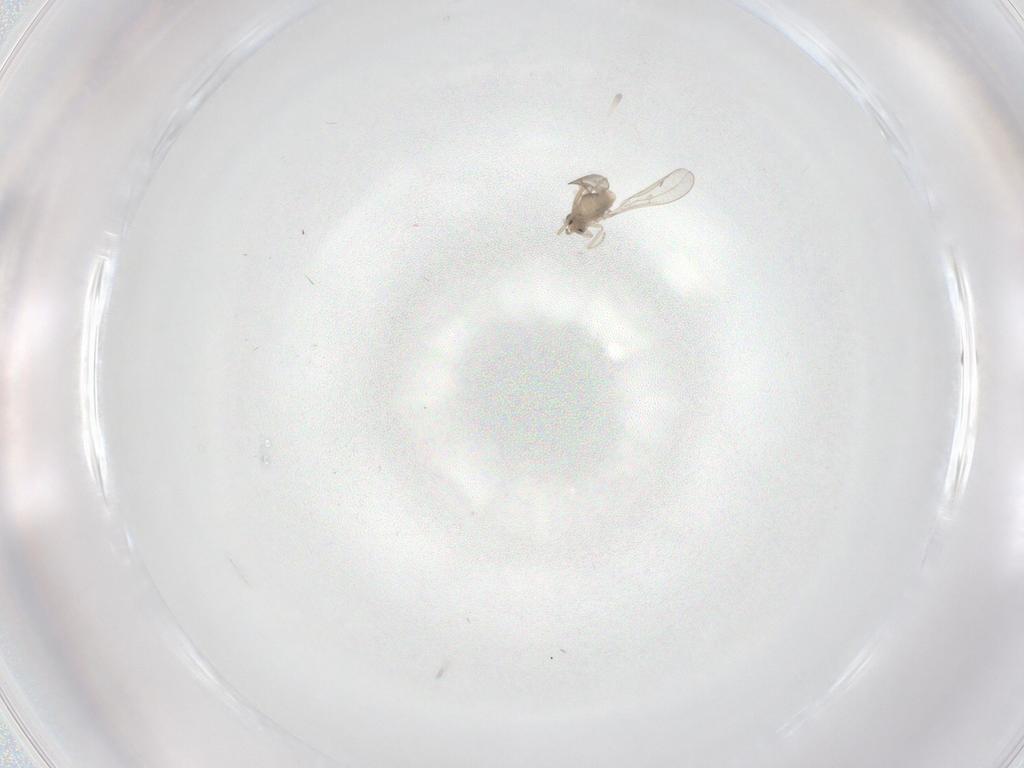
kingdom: Animalia
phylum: Arthropoda
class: Insecta
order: Diptera
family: Cecidomyiidae
